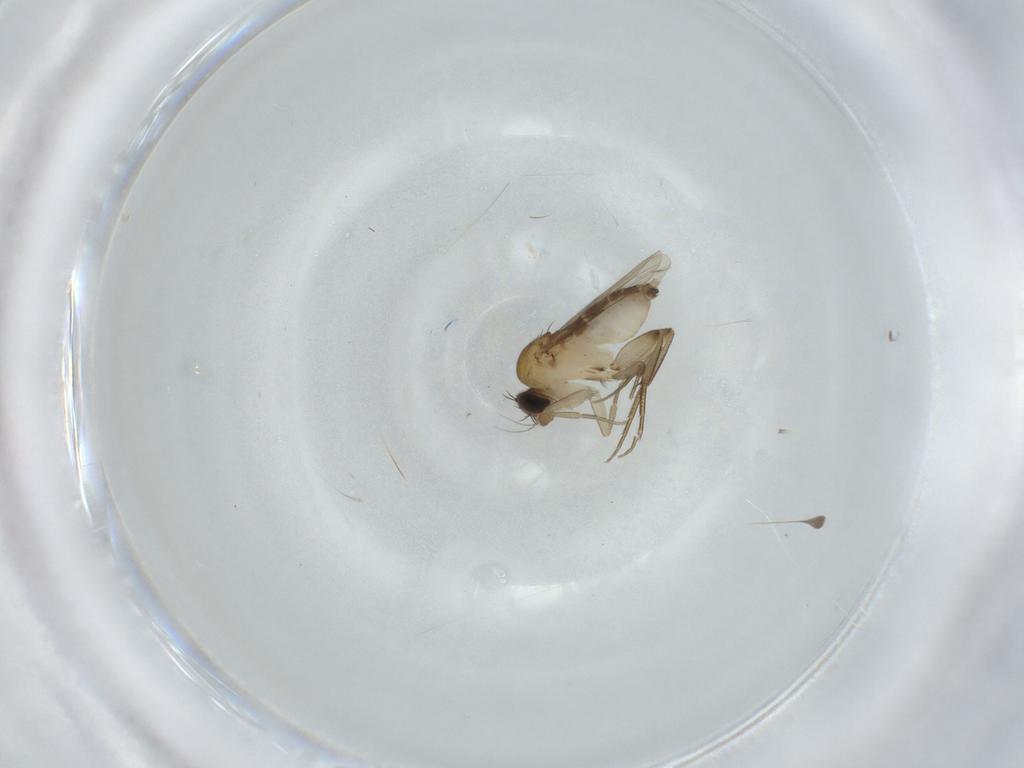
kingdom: Animalia
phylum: Arthropoda
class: Insecta
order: Diptera
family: Phoridae
